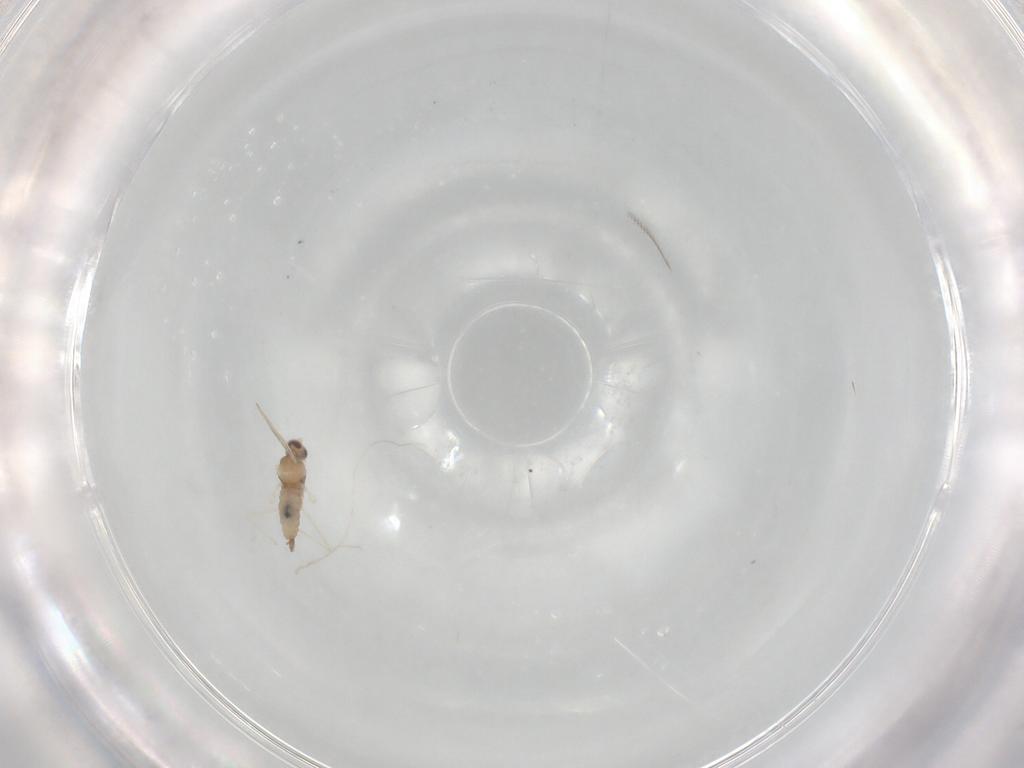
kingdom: Animalia
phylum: Arthropoda
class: Insecta
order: Diptera
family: Cecidomyiidae
